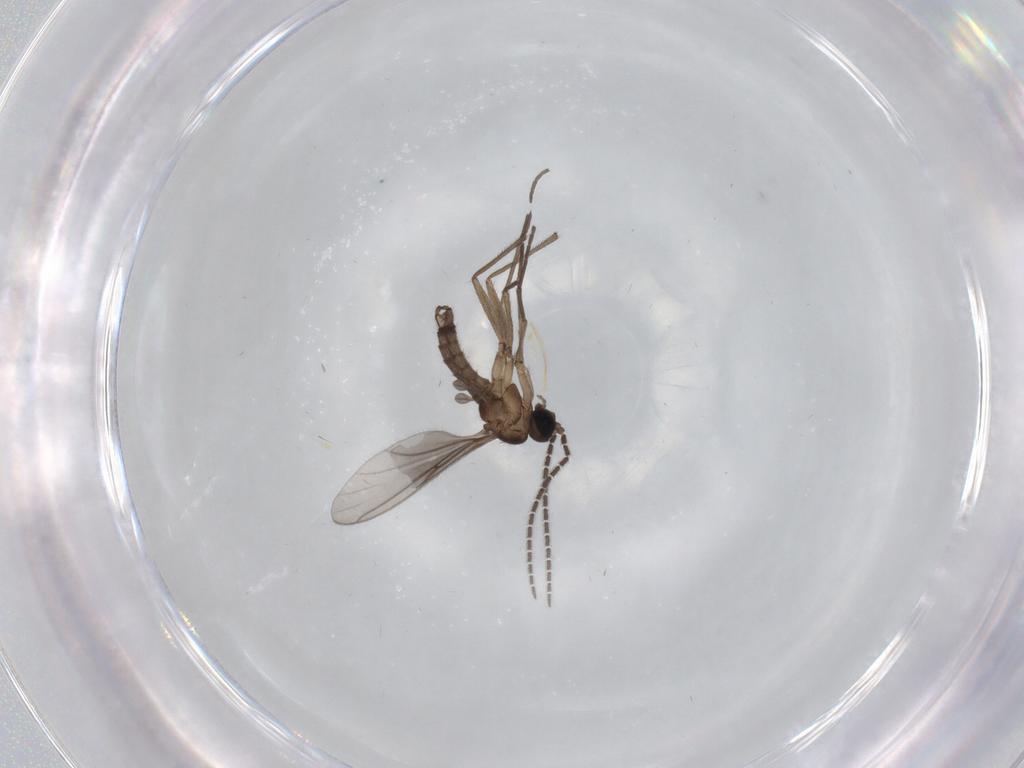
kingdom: Animalia
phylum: Arthropoda
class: Insecta
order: Diptera
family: Sciaridae
